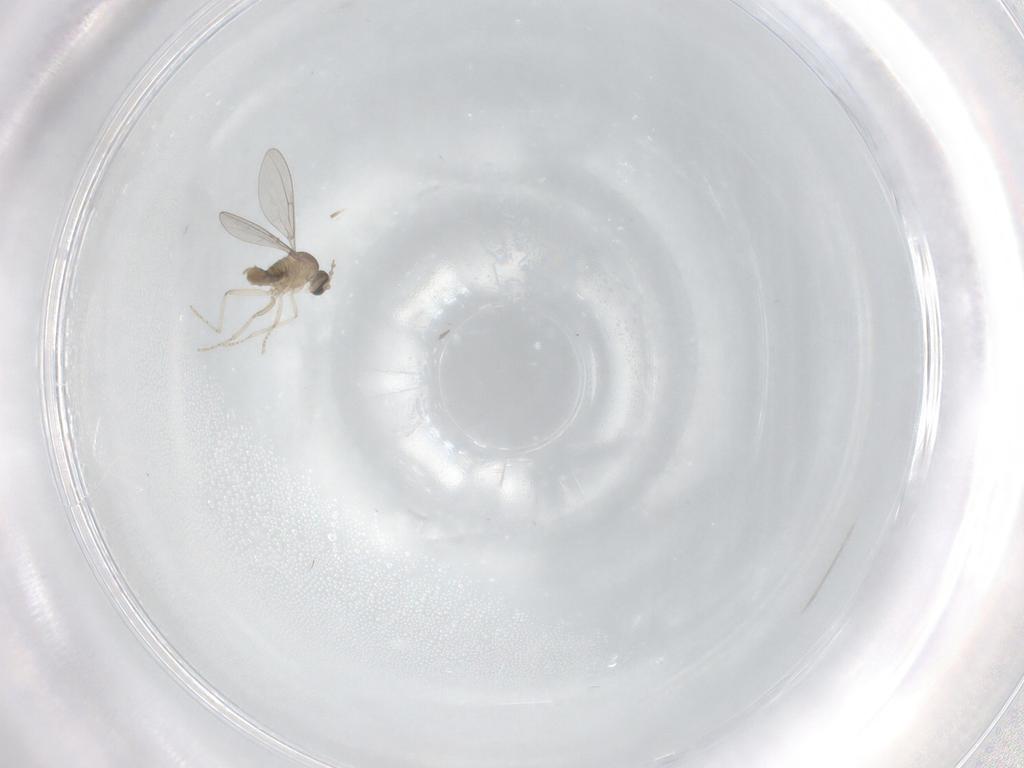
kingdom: Animalia
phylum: Arthropoda
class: Insecta
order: Diptera
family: Cecidomyiidae
